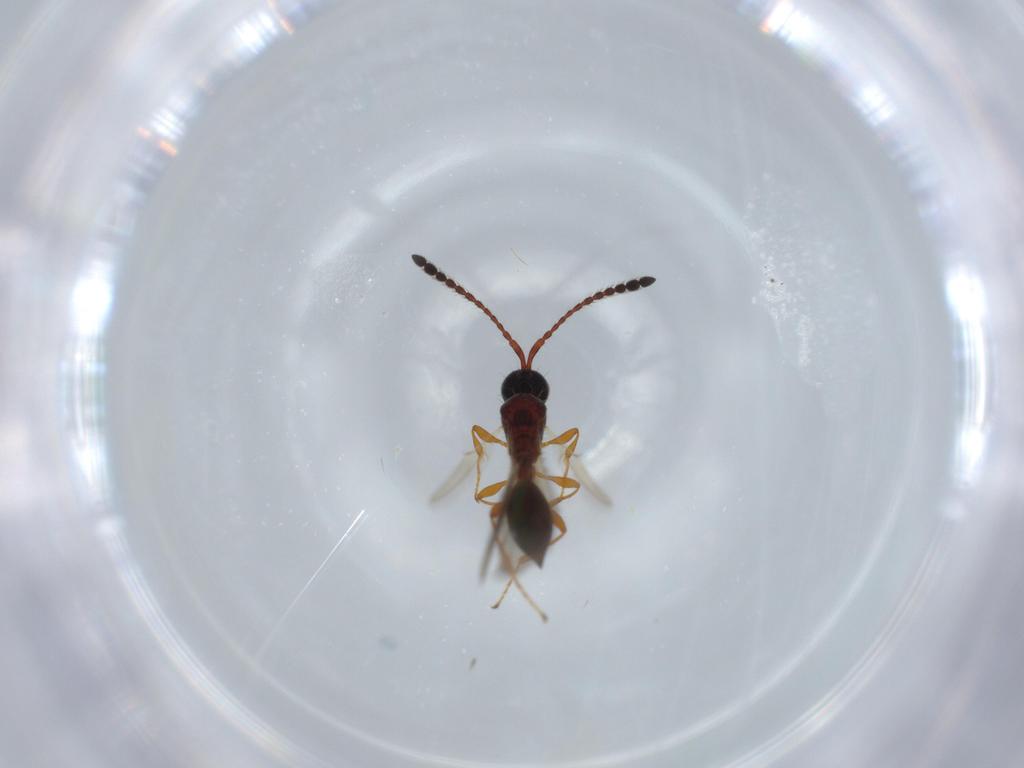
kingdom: Animalia
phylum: Arthropoda
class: Insecta
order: Hymenoptera
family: Diapriidae
